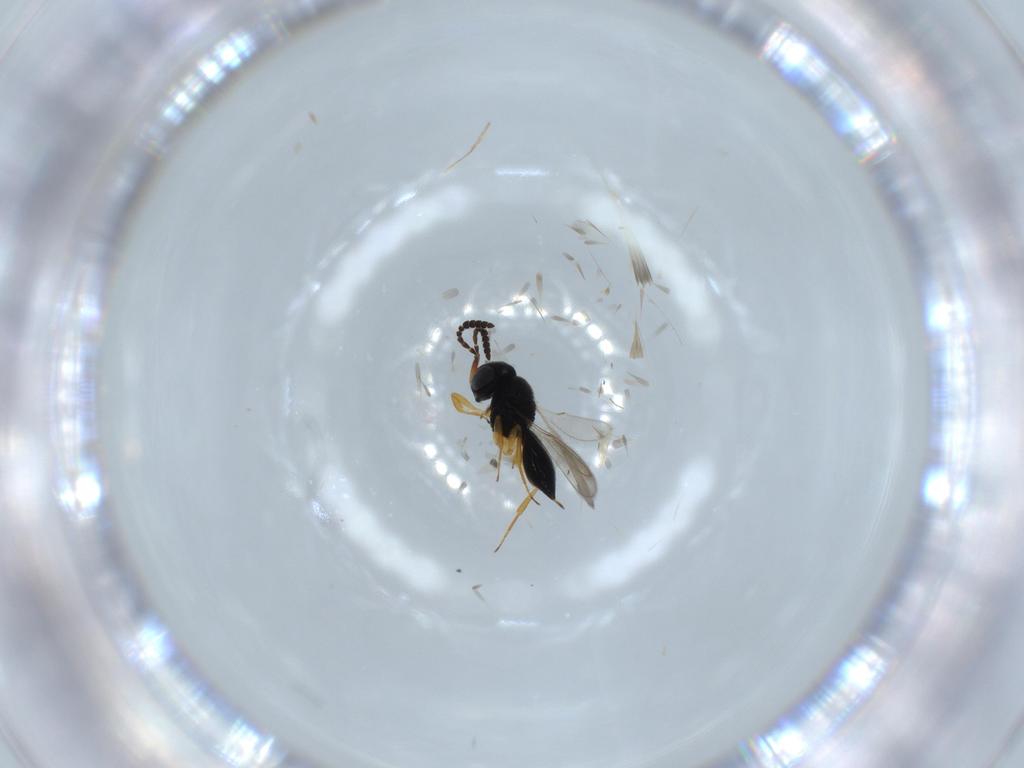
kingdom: Animalia
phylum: Arthropoda
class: Insecta
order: Hymenoptera
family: Scelionidae
